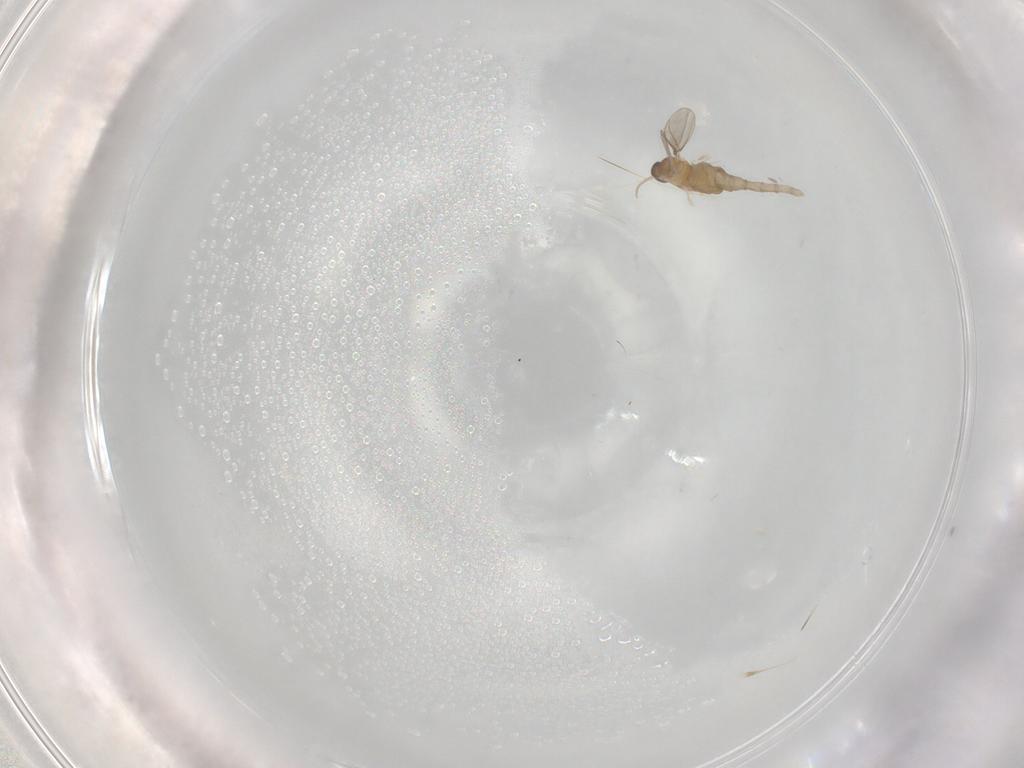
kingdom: Animalia
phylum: Arthropoda
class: Insecta
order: Diptera
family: Cecidomyiidae
